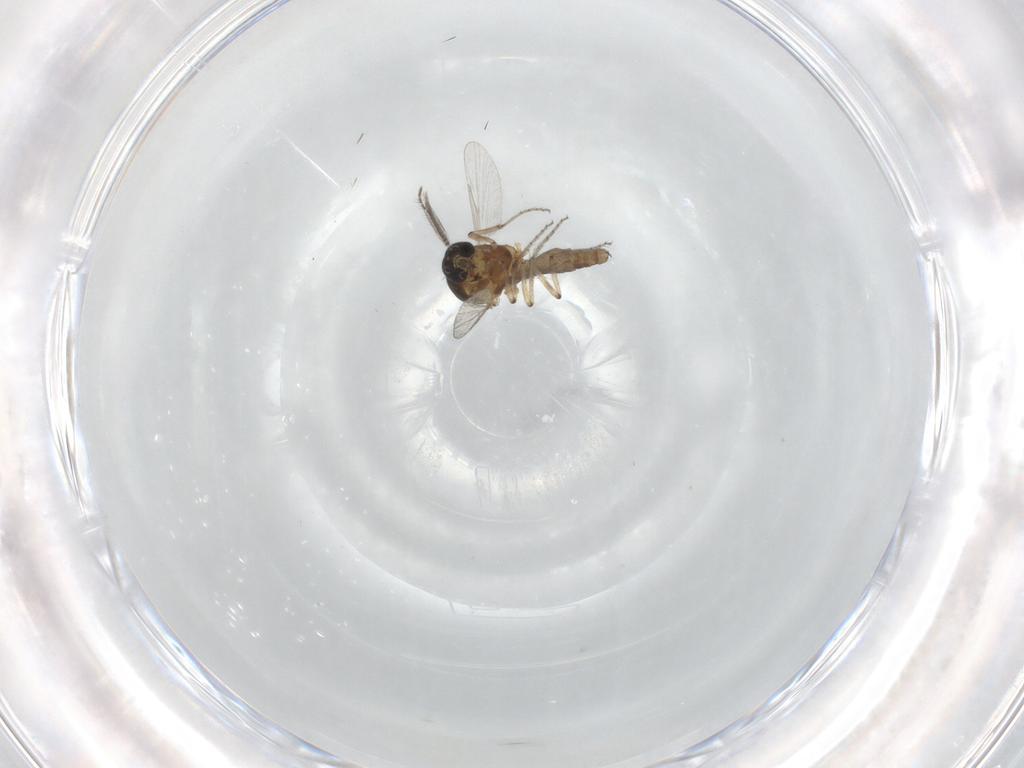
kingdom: Animalia
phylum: Arthropoda
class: Insecta
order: Diptera
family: Ceratopogonidae
